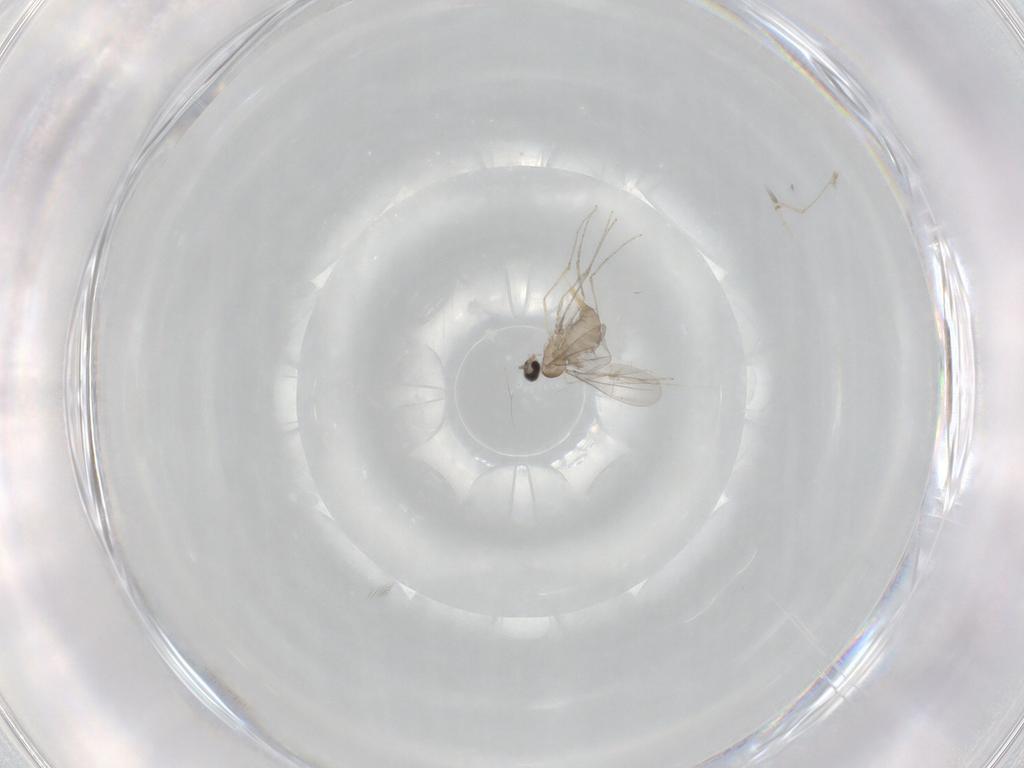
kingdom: Animalia
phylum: Arthropoda
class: Insecta
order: Diptera
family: Cecidomyiidae
